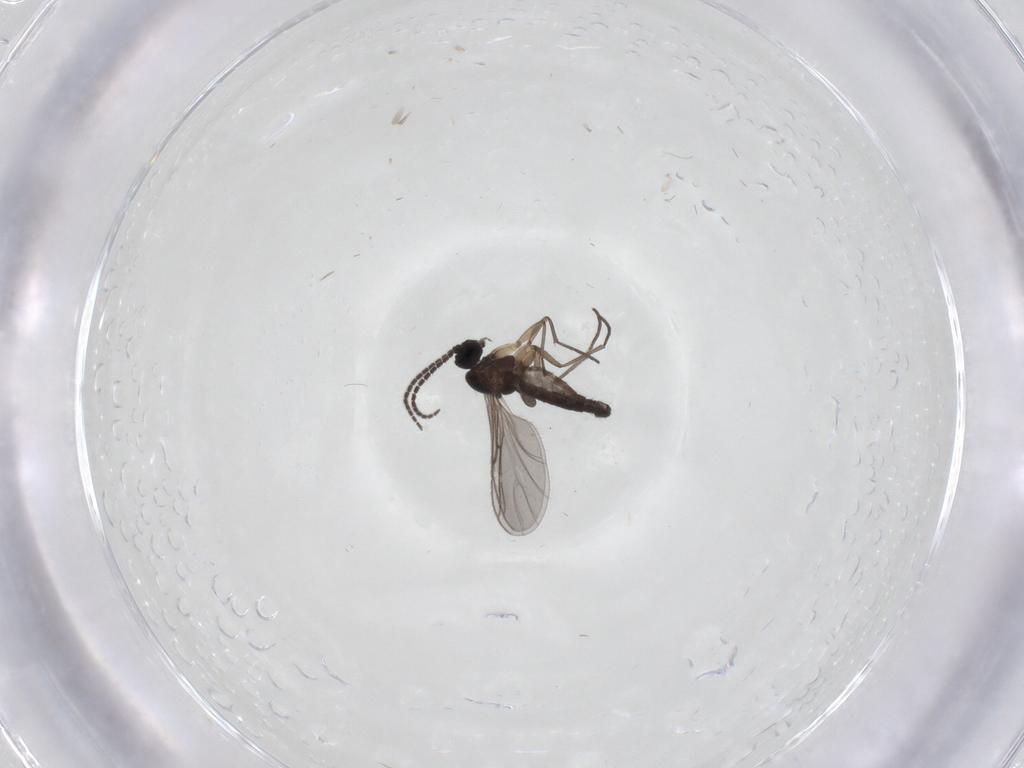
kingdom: Animalia
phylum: Arthropoda
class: Insecta
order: Diptera
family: Sciaridae
